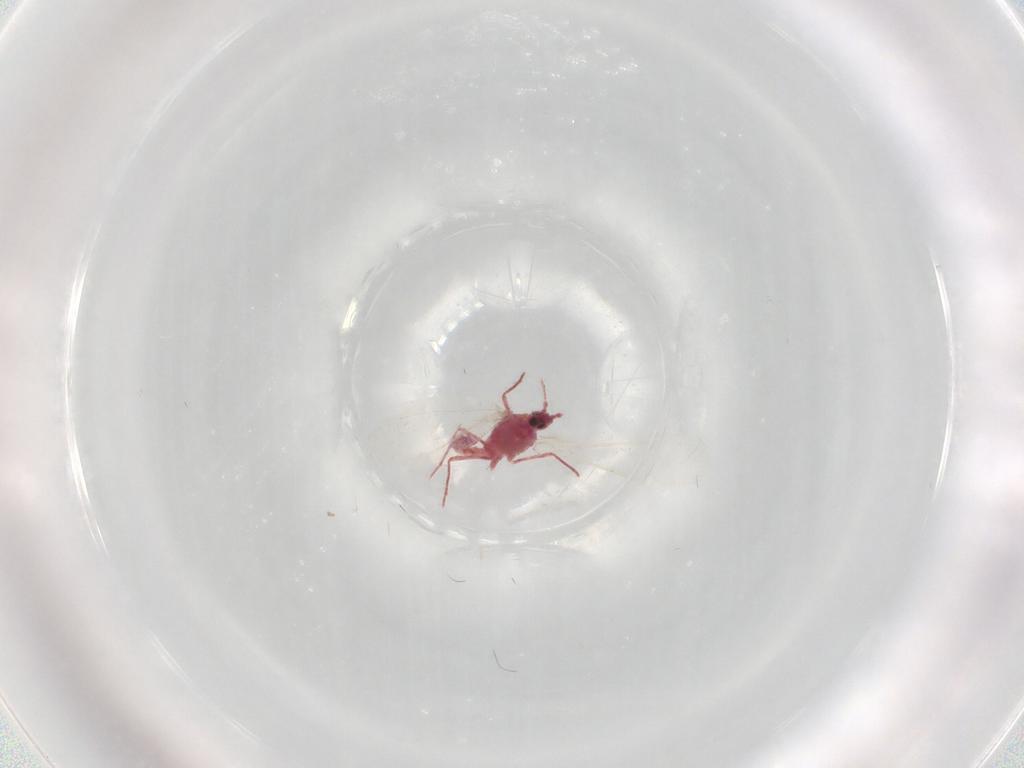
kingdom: Animalia
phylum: Arthropoda
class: Insecta
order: Hemiptera
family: Aleyrodidae
